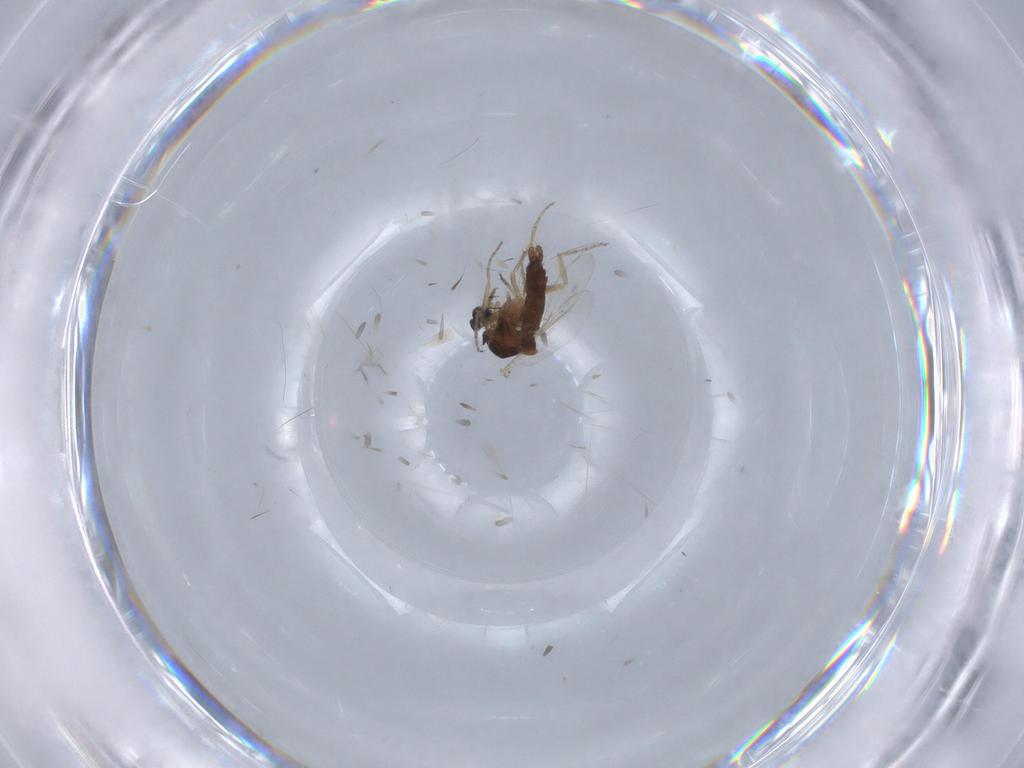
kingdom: Animalia
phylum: Arthropoda
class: Insecta
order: Diptera
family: Ceratopogonidae
